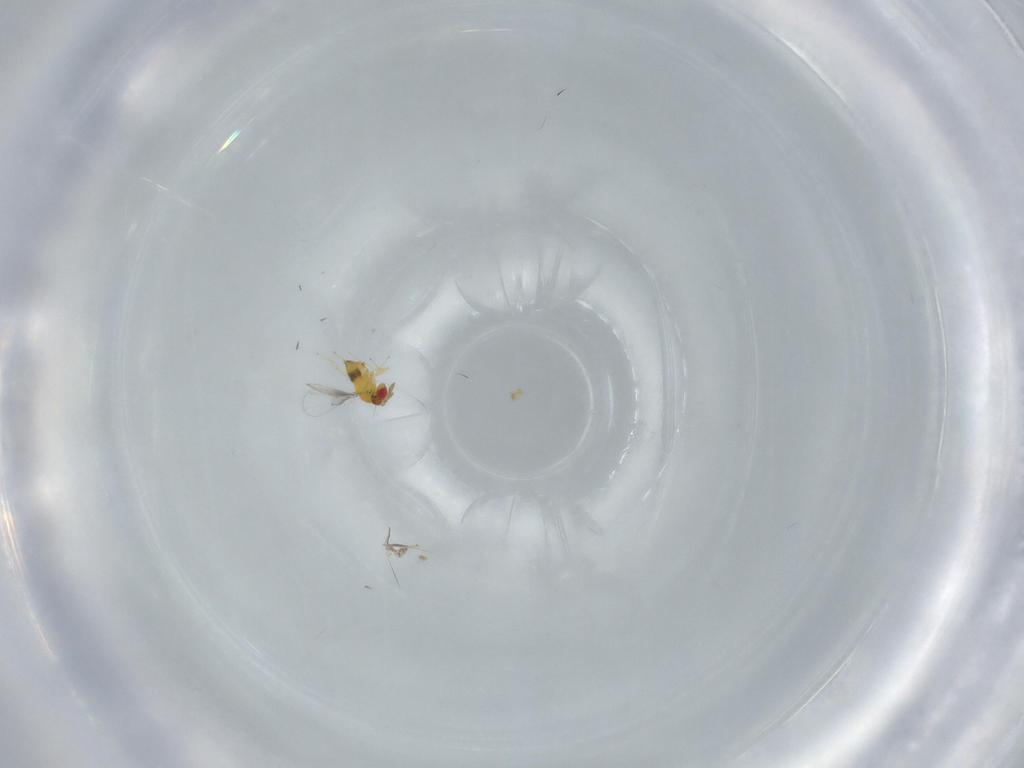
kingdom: Animalia
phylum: Arthropoda
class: Insecta
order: Hymenoptera
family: Trichogrammatidae
